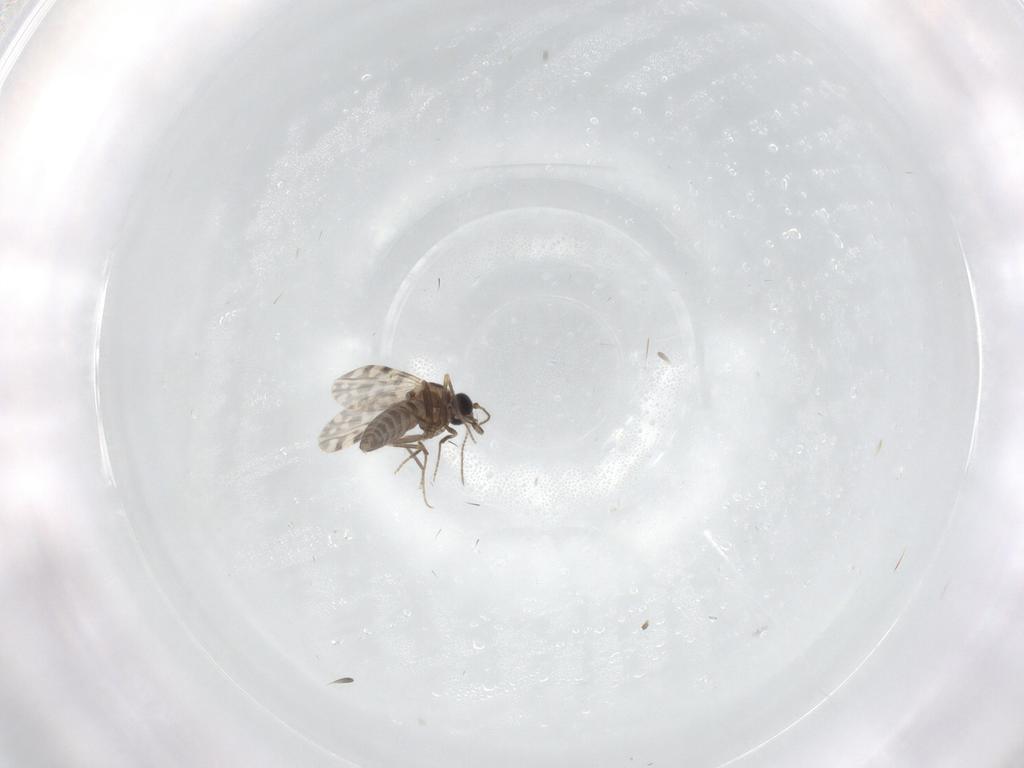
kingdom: Animalia
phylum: Arthropoda
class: Insecta
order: Diptera
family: Ceratopogonidae
